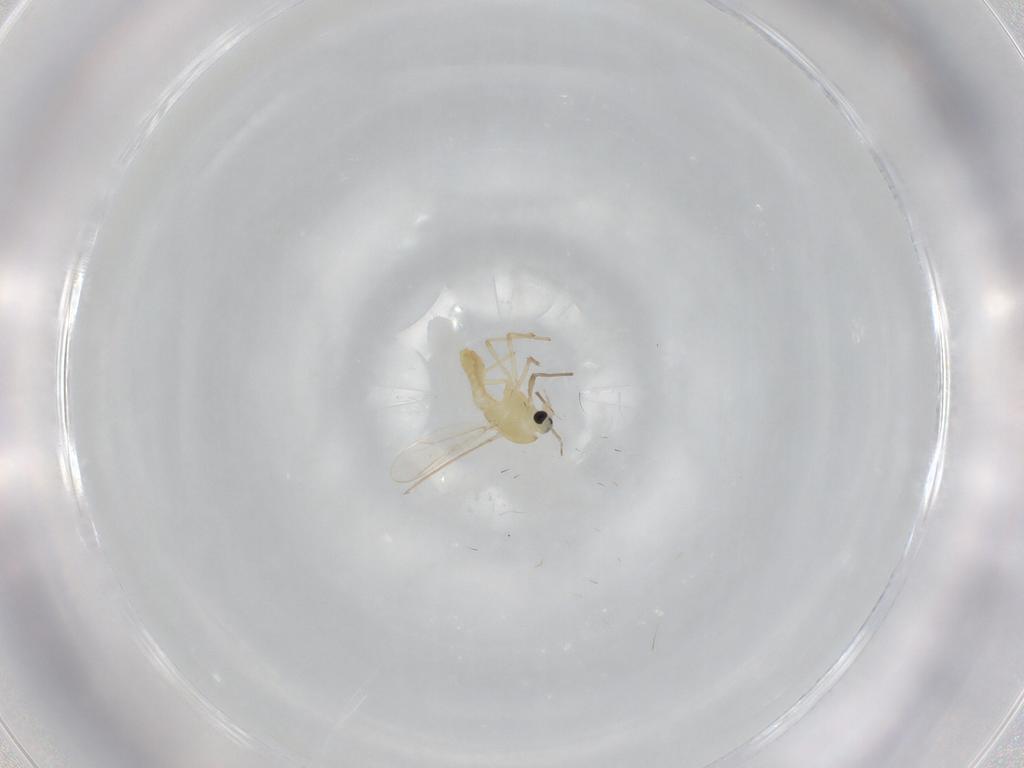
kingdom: Animalia
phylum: Arthropoda
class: Insecta
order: Diptera
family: Chironomidae
